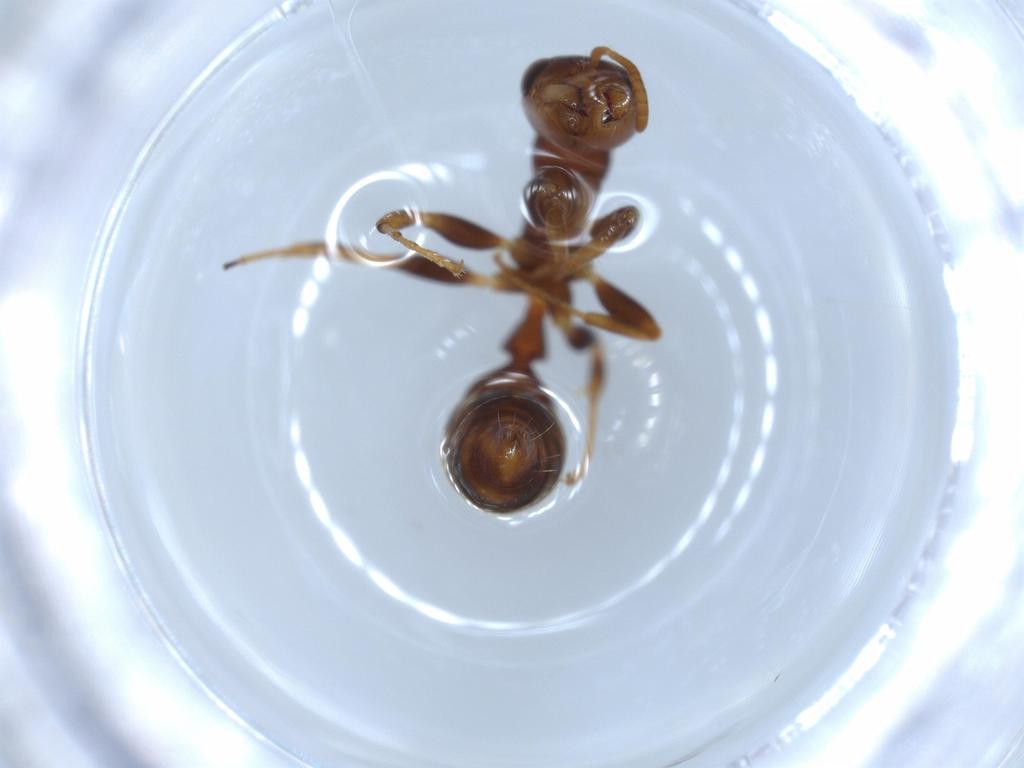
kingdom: Animalia
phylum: Arthropoda
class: Insecta
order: Hymenoptera
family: Formicidae
